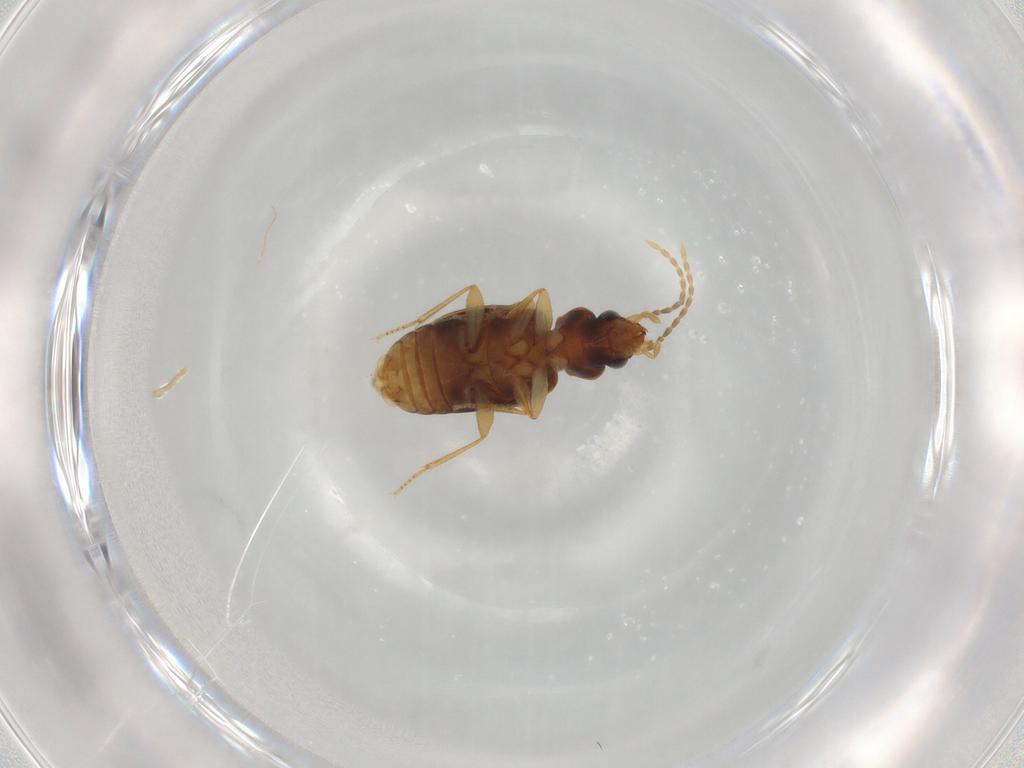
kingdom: Animalia
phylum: Arthropoda
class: Insecta
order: Coleoptera
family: Carabidae
